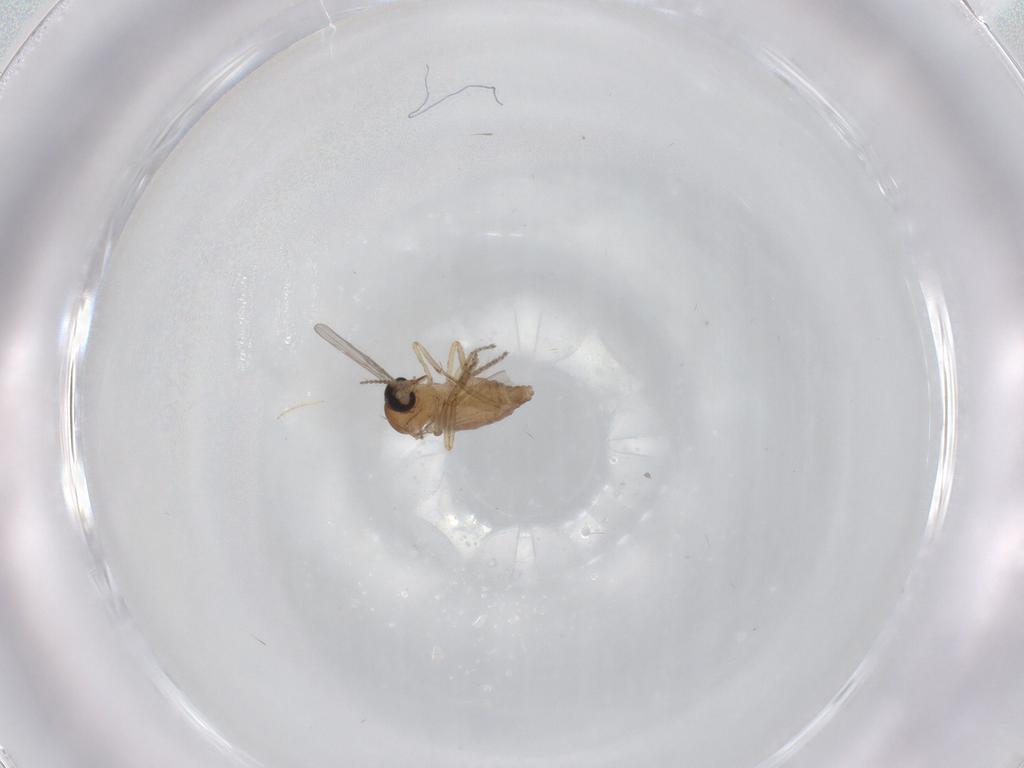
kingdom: Animalia
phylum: Arthropoda
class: Insecta
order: Diptera
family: Ceratopogonidae
